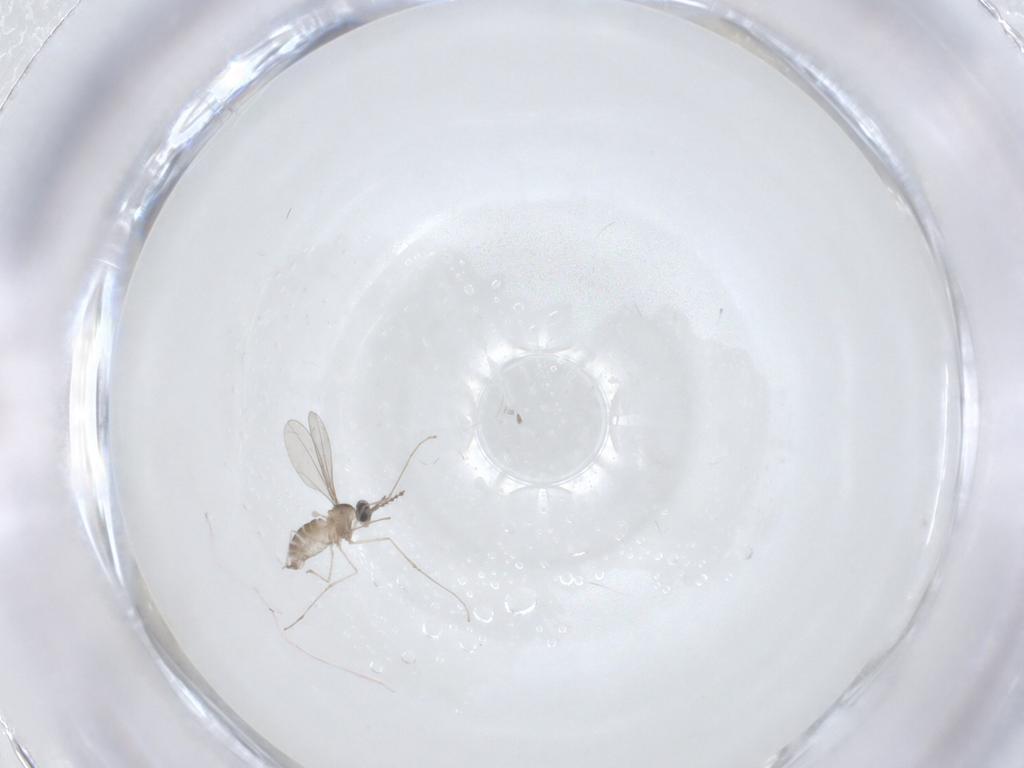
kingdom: Animalia
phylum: Arthropoda
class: Insecta
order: Diptera
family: Cecidomyiidae
